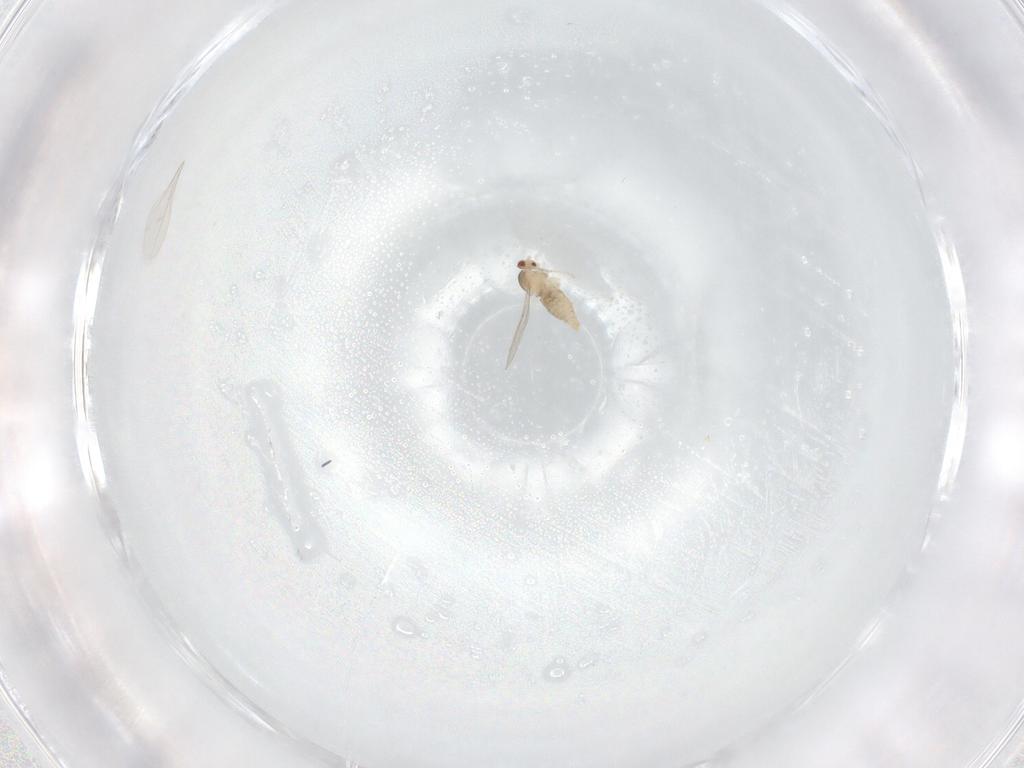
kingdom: Animalia
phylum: Arthropoda
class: Insecta
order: Diptera
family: Cecidomyiidae
